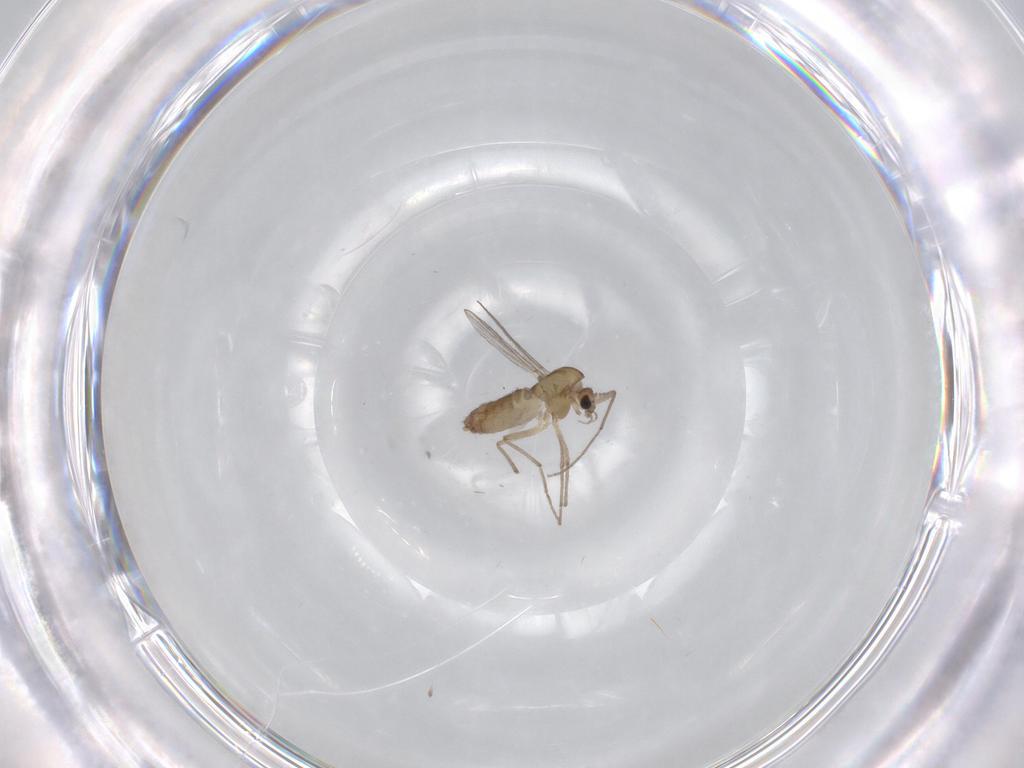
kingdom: Animalia
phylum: Arthropoda
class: Insecta
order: Diptera
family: Chironomidae
